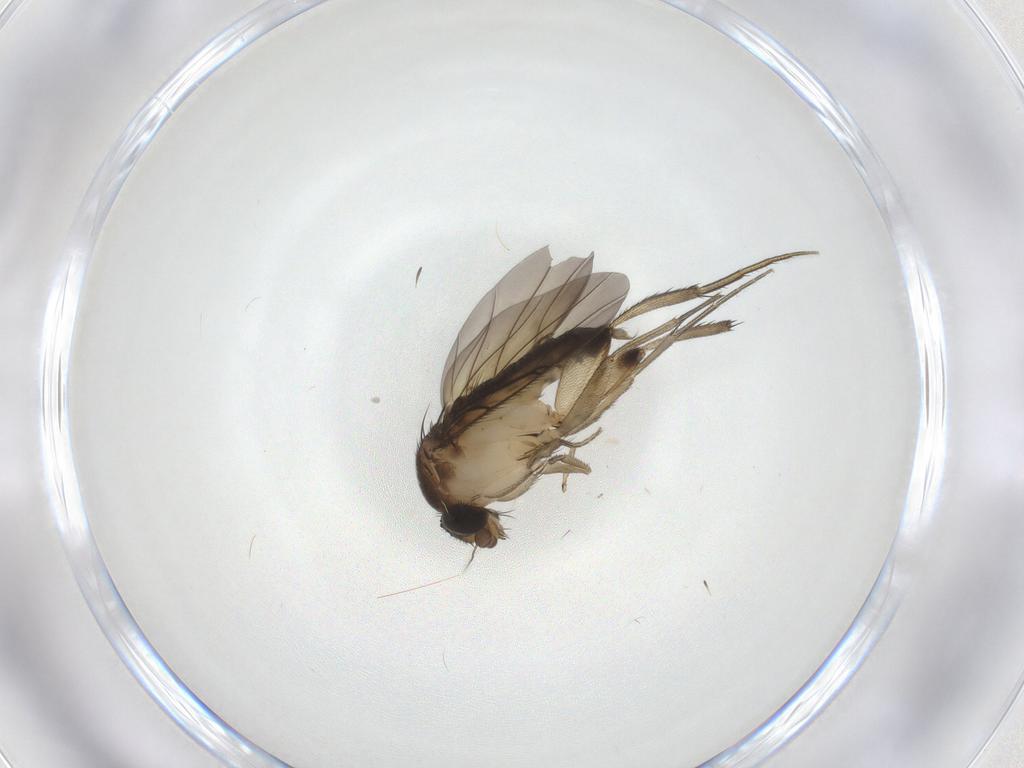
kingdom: Animalia
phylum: Arthropoda
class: Insecta
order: Diptera
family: Phoridae
